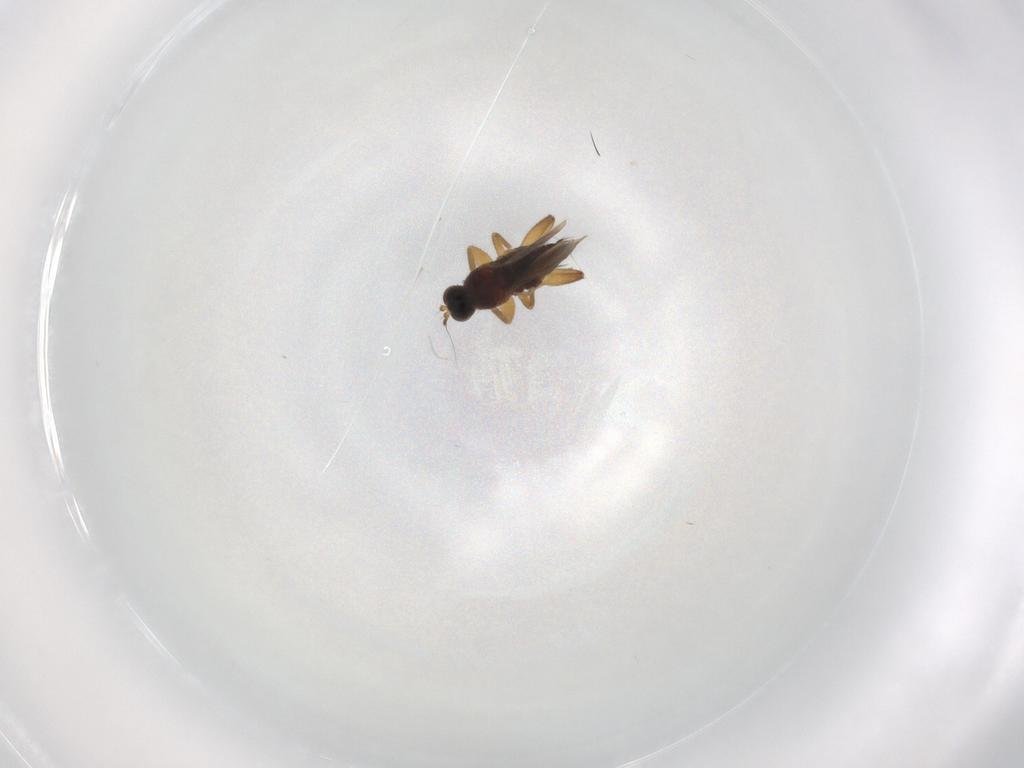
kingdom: Animalia
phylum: Arthropoda
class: Insecta
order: Diptera
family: Hybotidae
